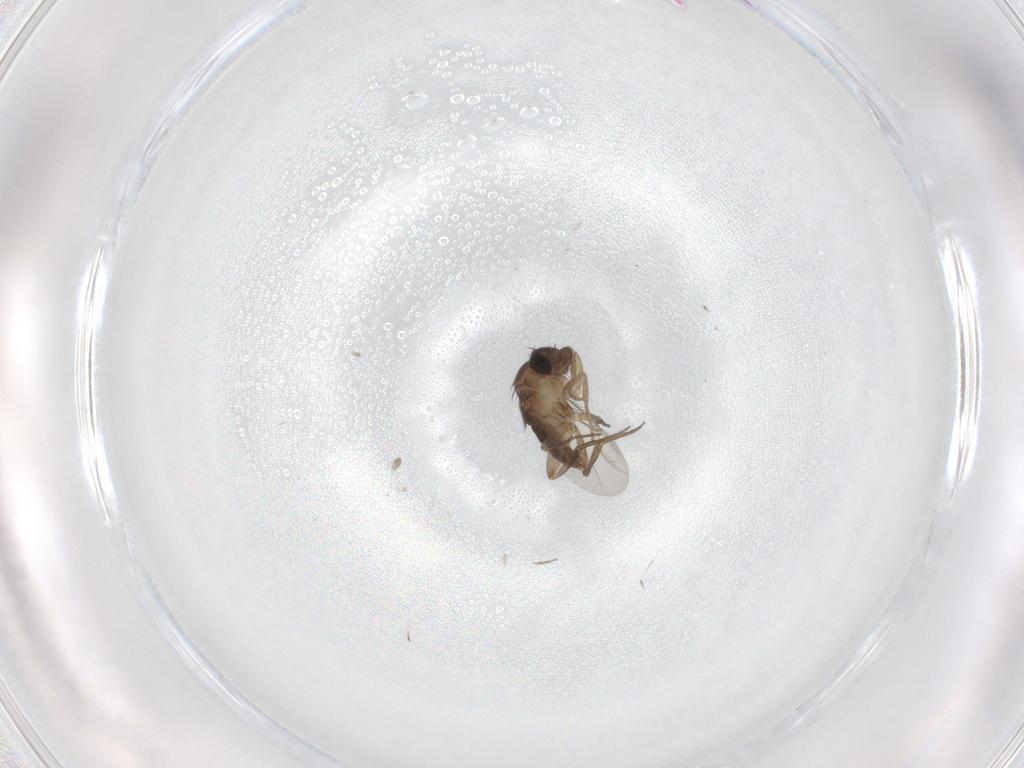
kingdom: Animalia
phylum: Arthropoda
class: Insecta
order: Diptera
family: Phoridae
